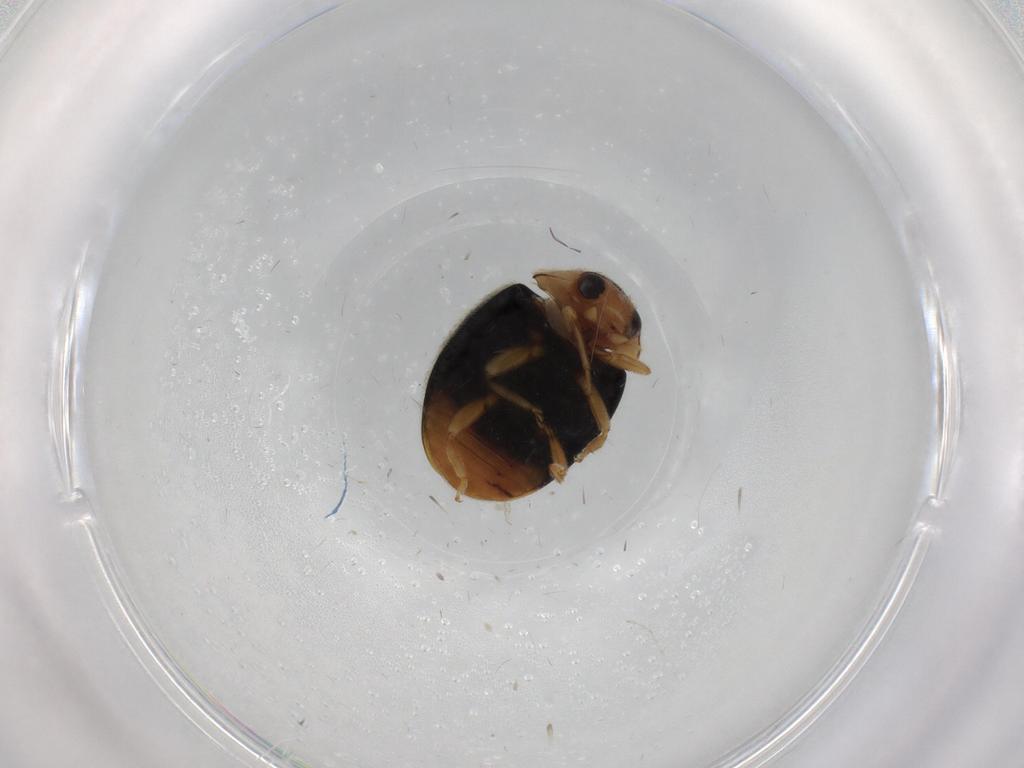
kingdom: Animalia
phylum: Arthropoda
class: Insecta
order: Coleoptera
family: Coccinellidae
